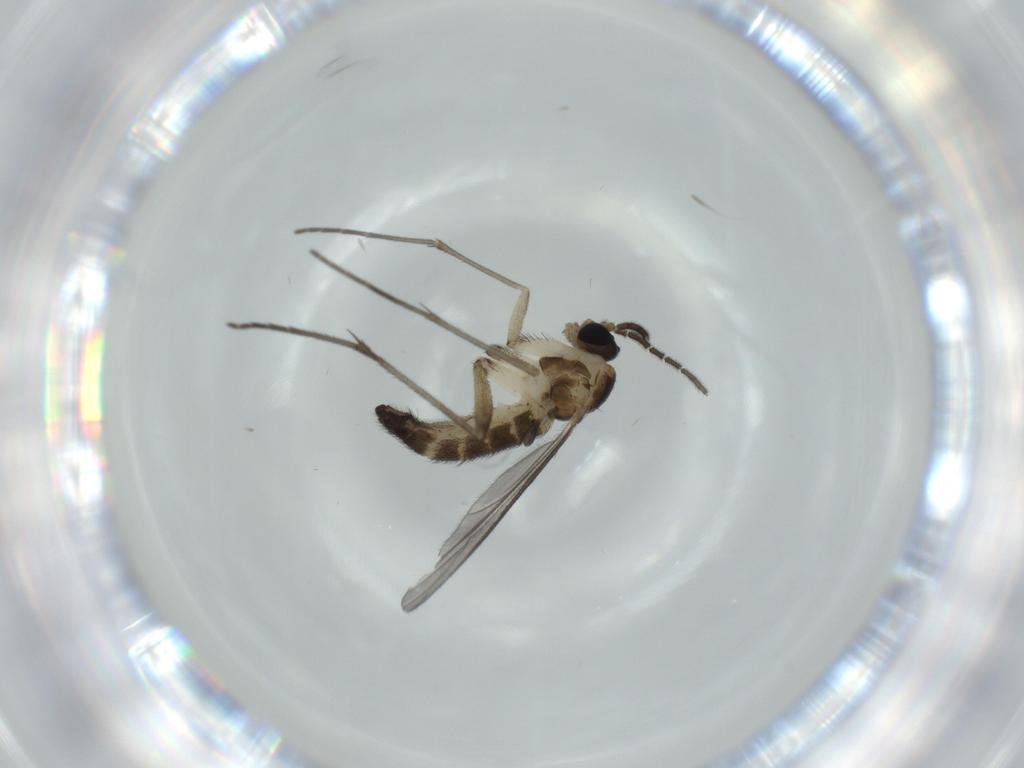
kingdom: Animalia
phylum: Arthropoda
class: Insecta
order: Diptera
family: Sciaridae
